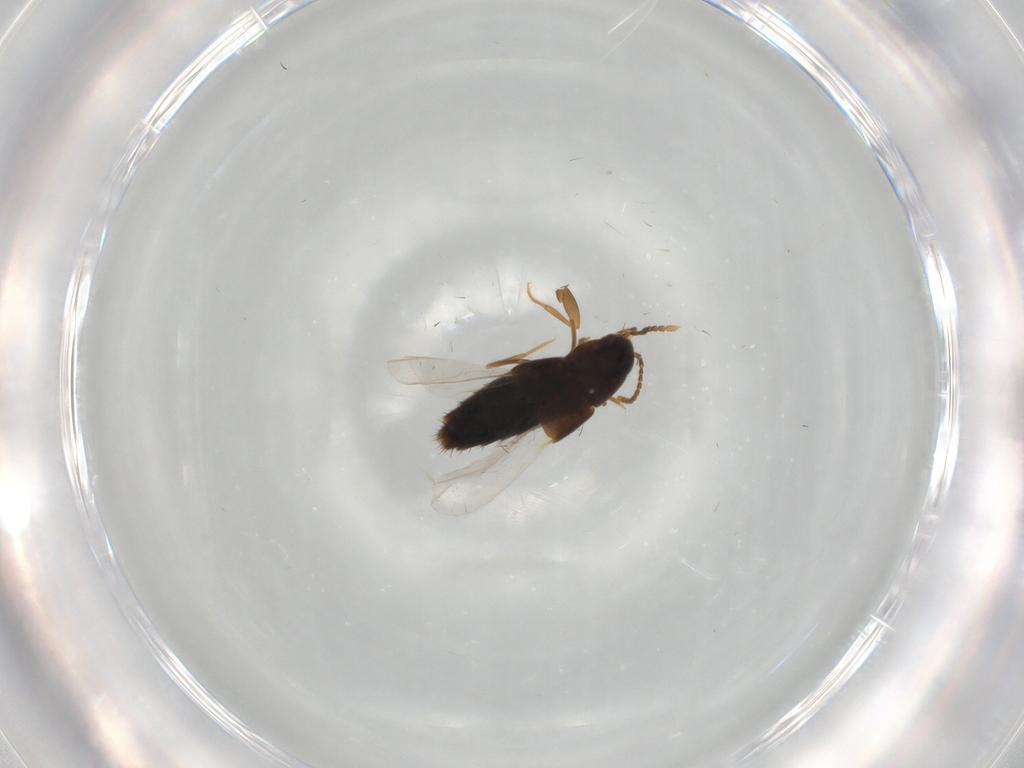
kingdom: Animalia
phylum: Arthropoda
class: Insecta
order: Coleoptera
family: Staphylinidae
